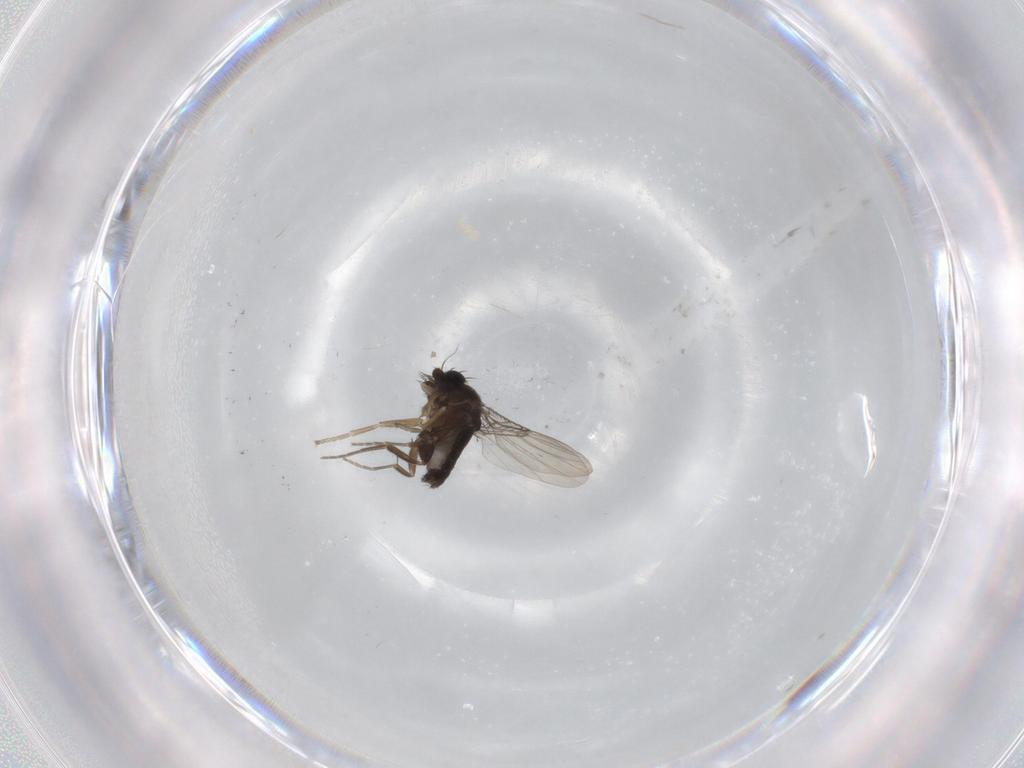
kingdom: Animalia
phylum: Arthropoda
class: Insecta
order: Diptera
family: Phoridae
